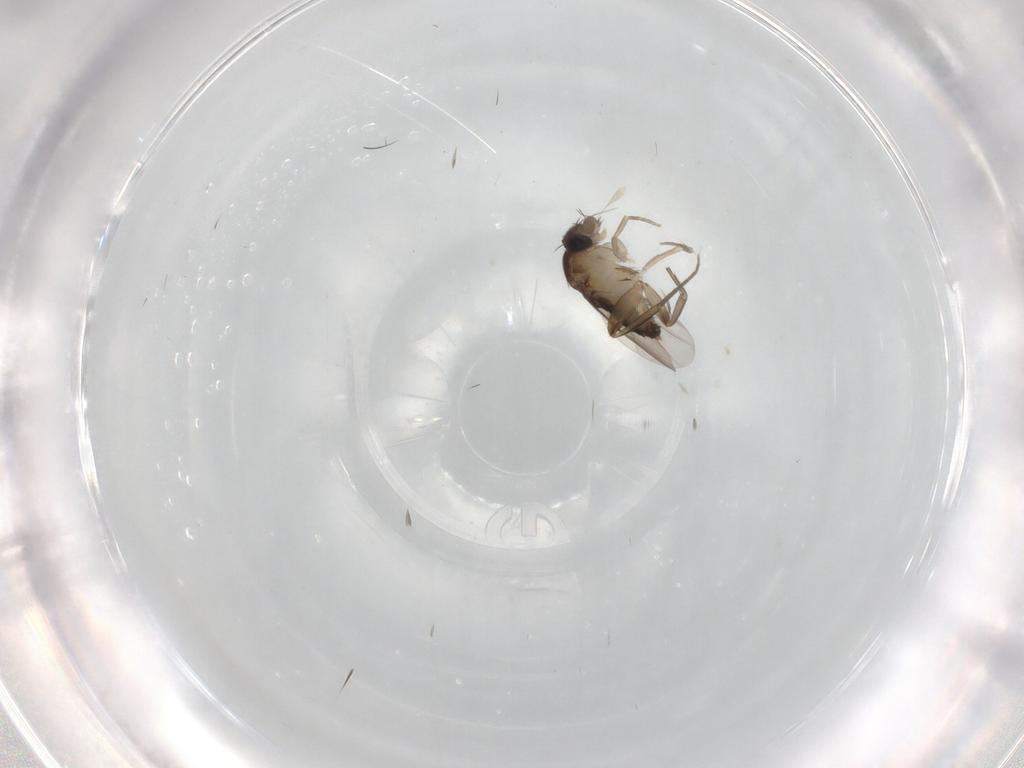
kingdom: Animalia
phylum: Arthropoda
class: Insecta
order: Diptera
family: Phoridae
